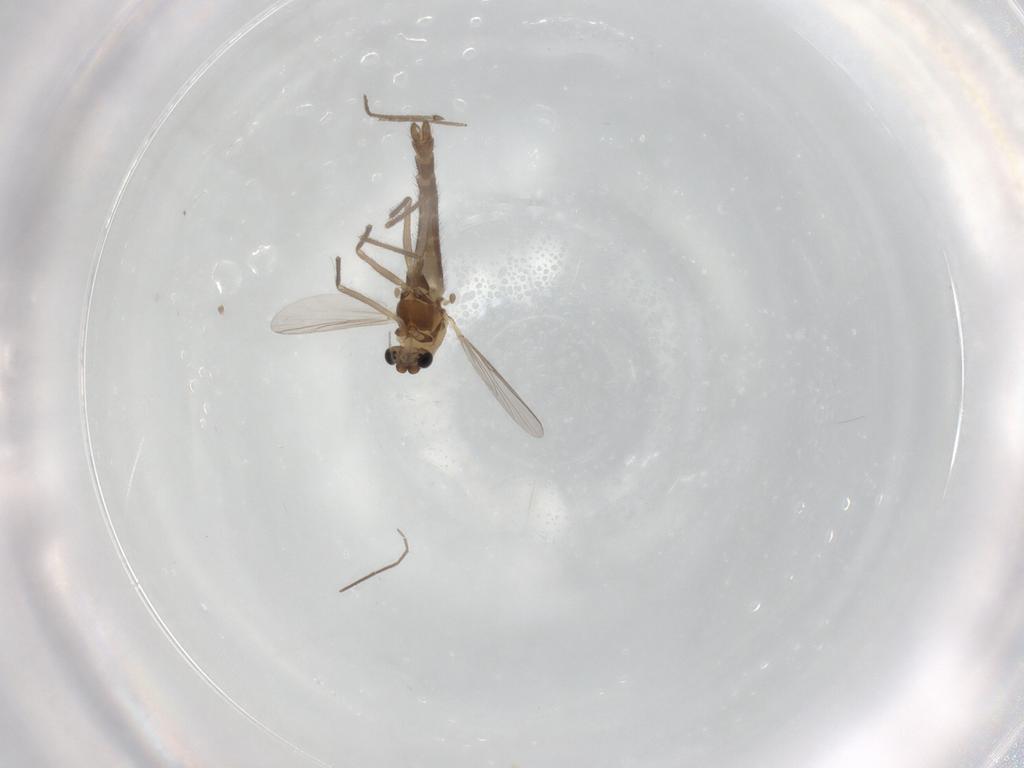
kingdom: Animalia
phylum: Arthropoda
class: Insecta
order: Diptera
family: Chironomidae
